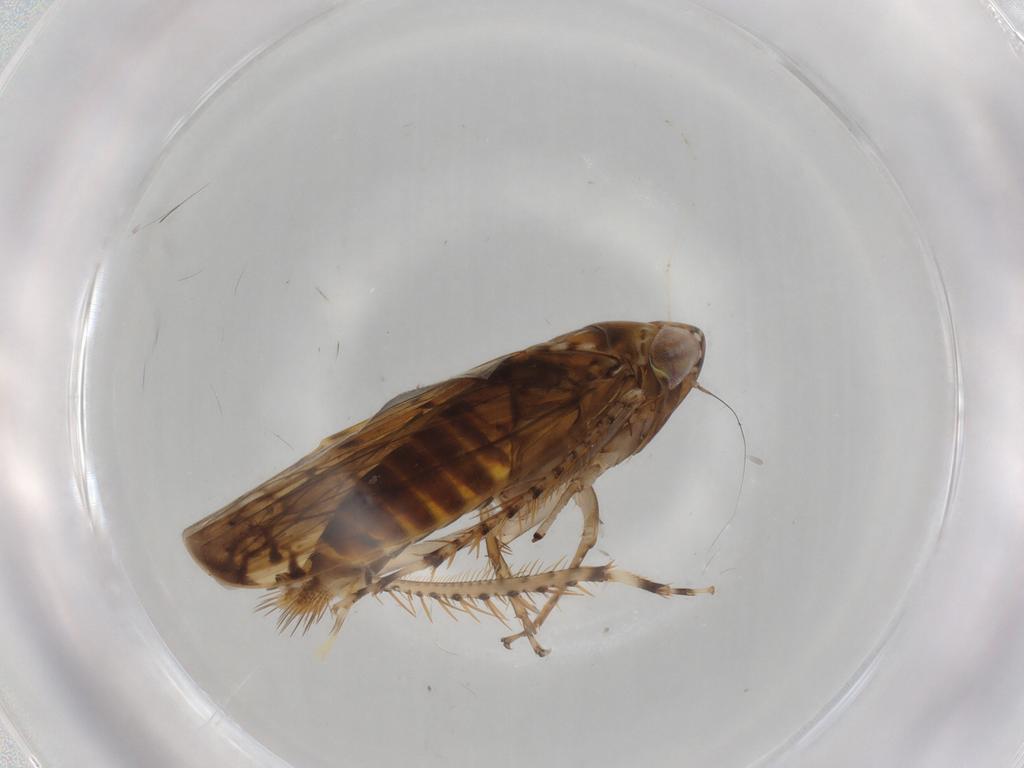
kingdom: Animalia
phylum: Arthropoda
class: Insecta
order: Hemiptera
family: Cicadellidae
